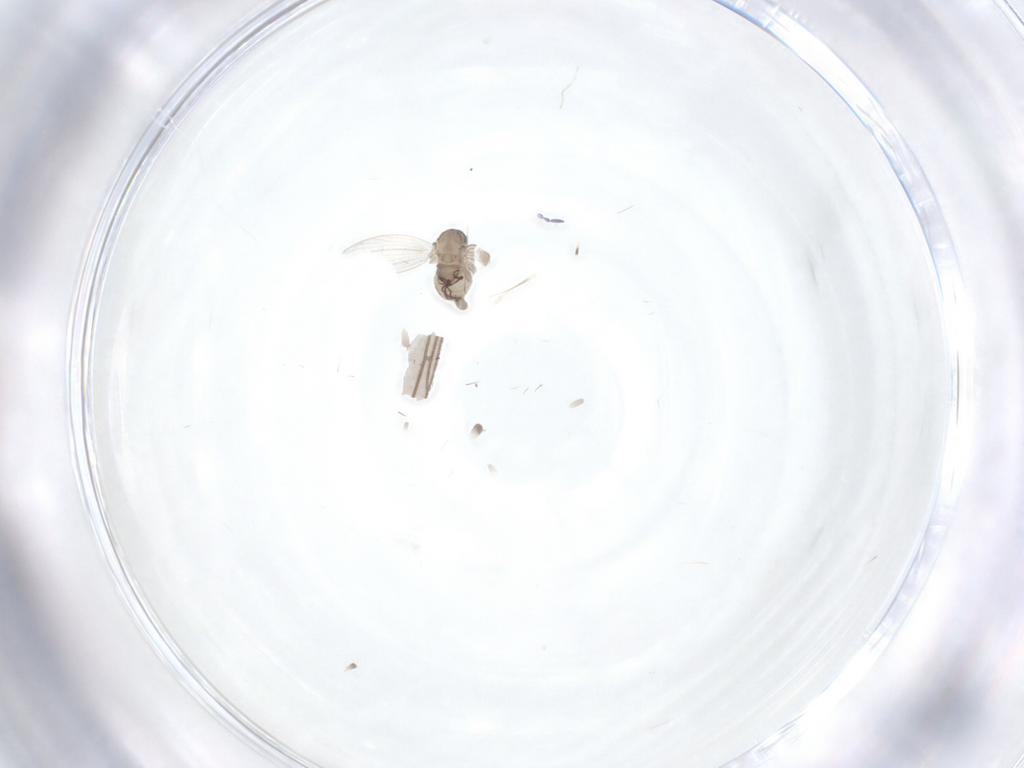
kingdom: Animalia
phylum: Arthropoda
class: Insecta
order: Diptera
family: Psychodidae
